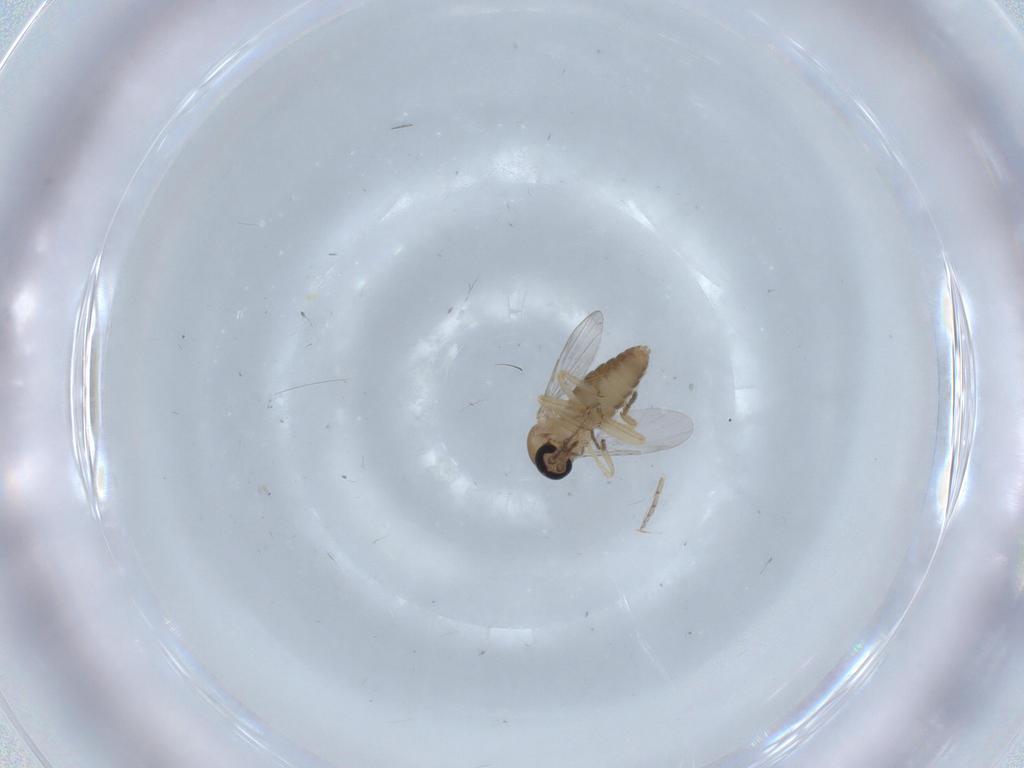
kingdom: Animalia
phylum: Arthropoda
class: Insecta
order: Diptera
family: Ceratopogonidae
